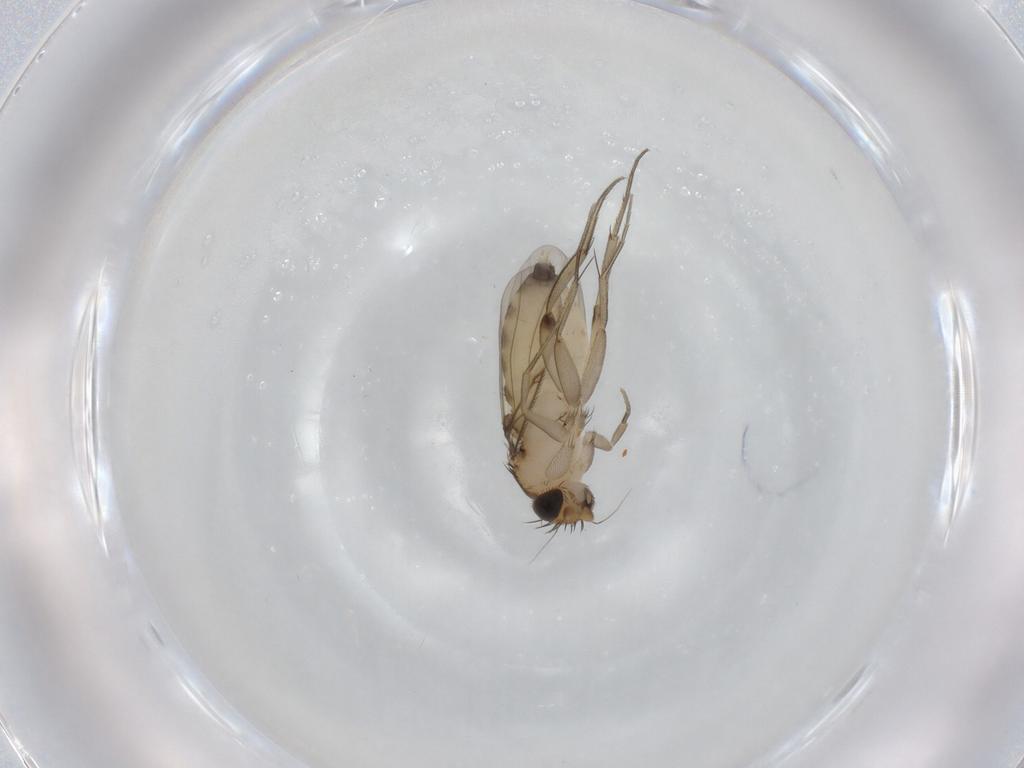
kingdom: Animalia
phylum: Arthropoda
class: Insecta
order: Diptera
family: Phoridae
